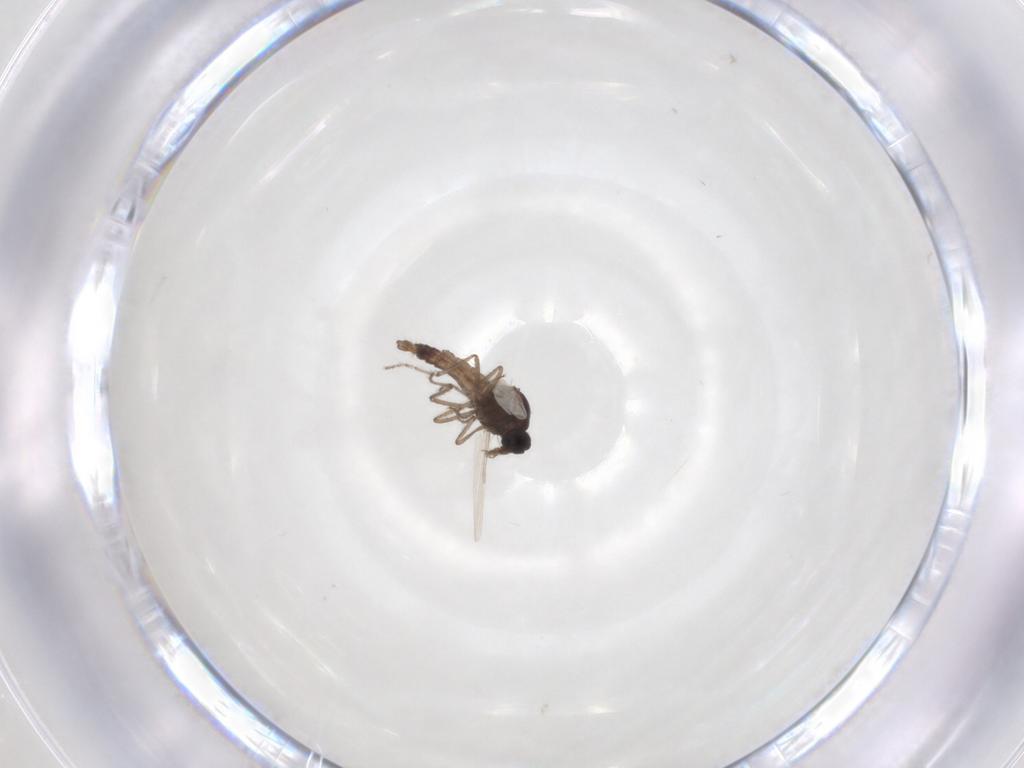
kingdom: Animalia
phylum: Arthropoda
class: Insecta
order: Diptera
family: Ceratopogonidae
